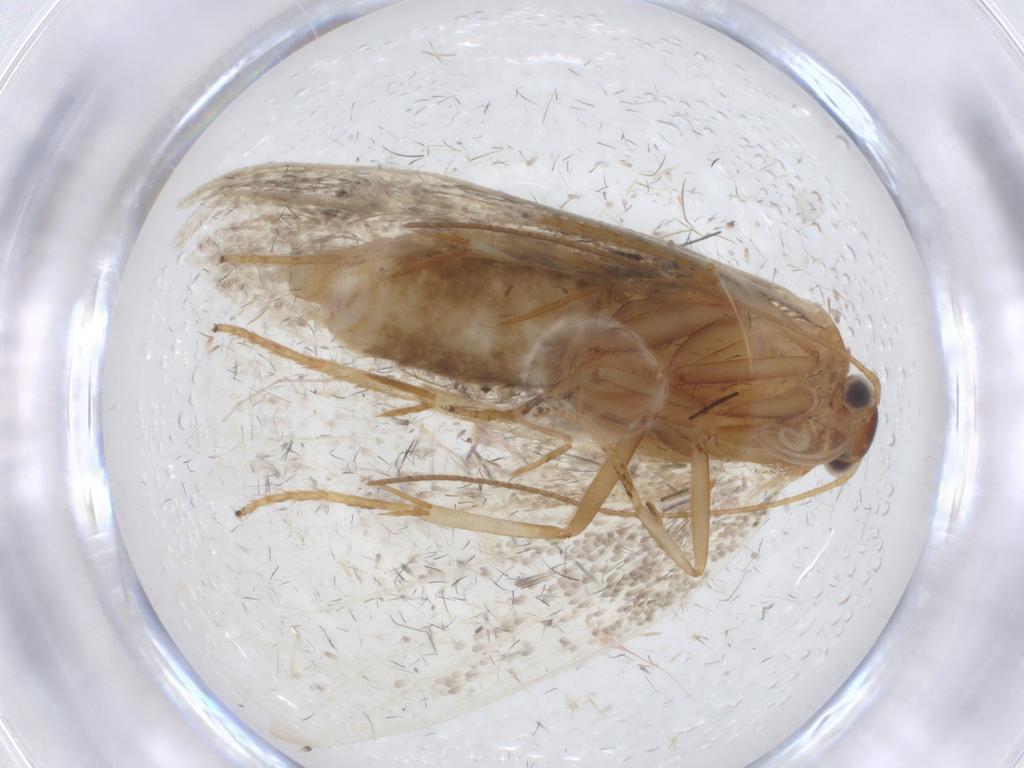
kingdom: Animalia
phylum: Arthropoda
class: Insecta
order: Lepidoptera
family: Oecophoridae
